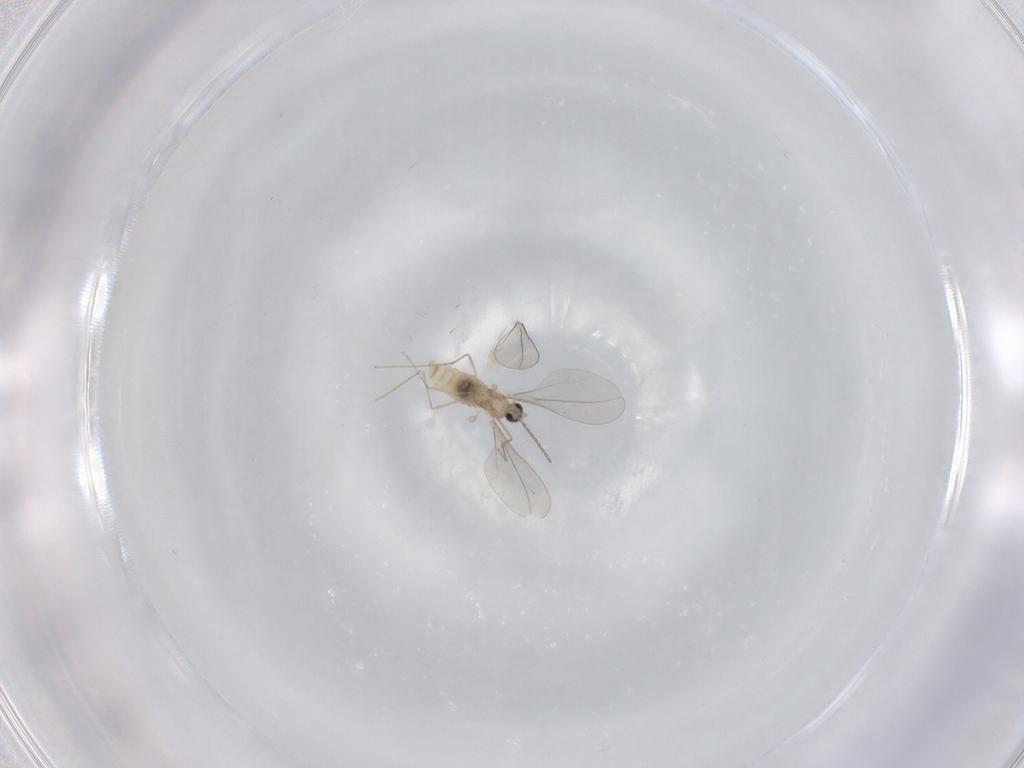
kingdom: Animalia
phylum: Arthropoda
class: Insecta
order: Diptera
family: Cecidomyiidae
